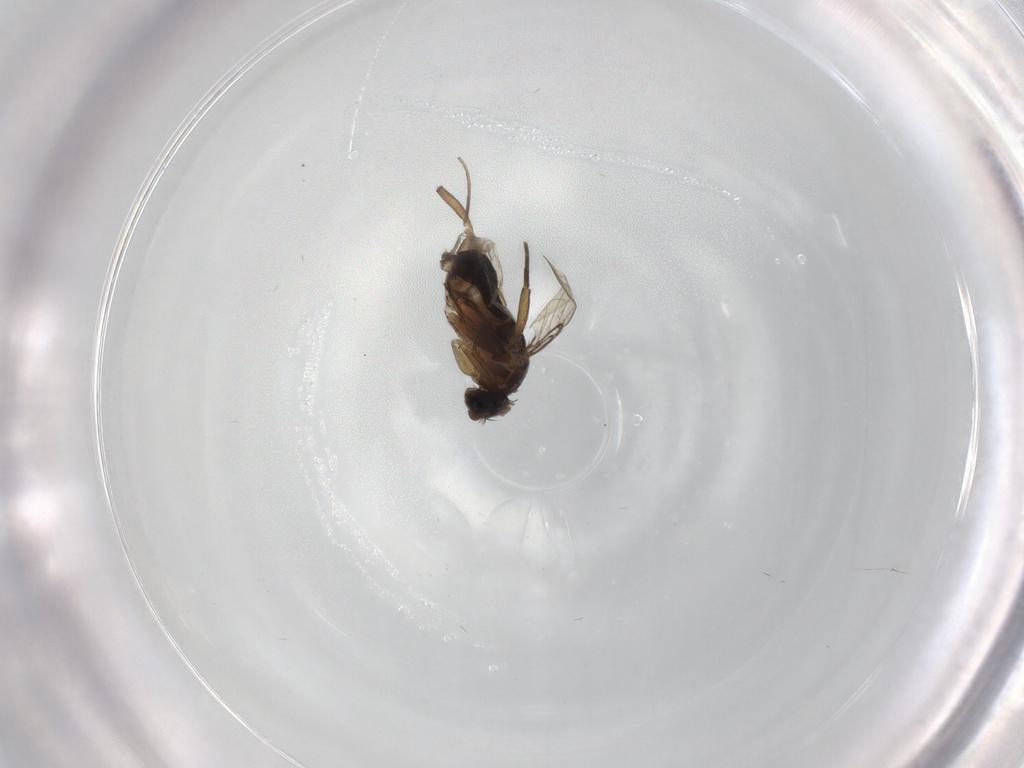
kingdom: Animalia
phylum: Arthropoda
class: Insecta
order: Diptera
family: Phoridae
